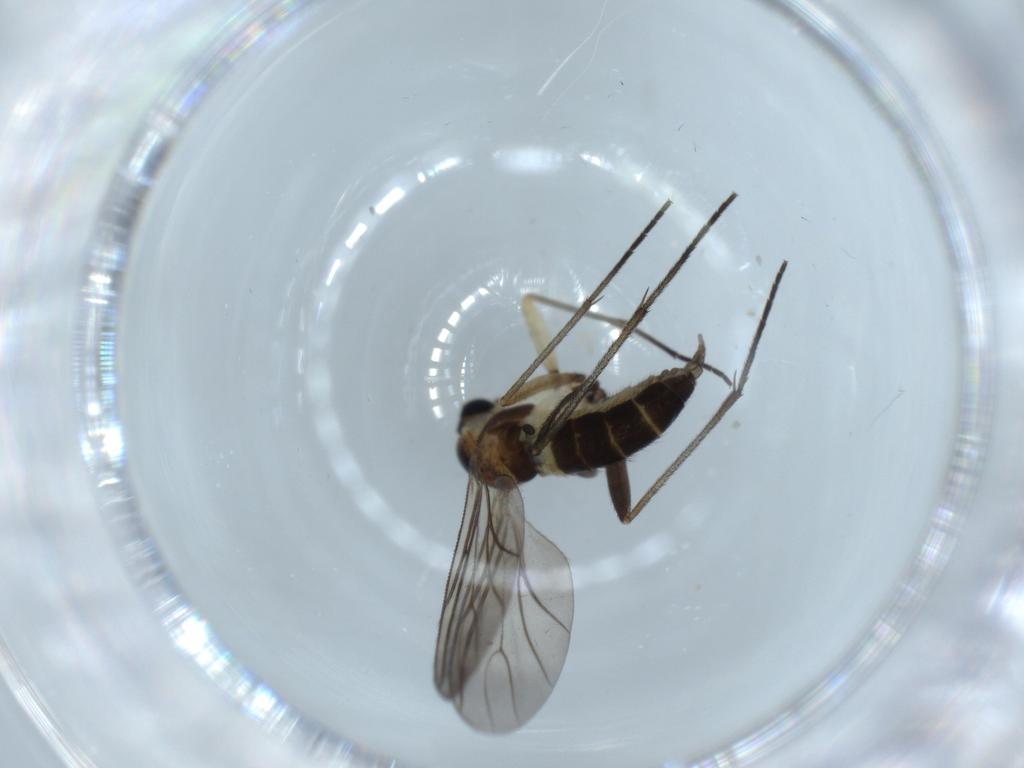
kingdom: Animalia
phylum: Arthropoda
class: Insecta
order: Diptera
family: Sciaridae
